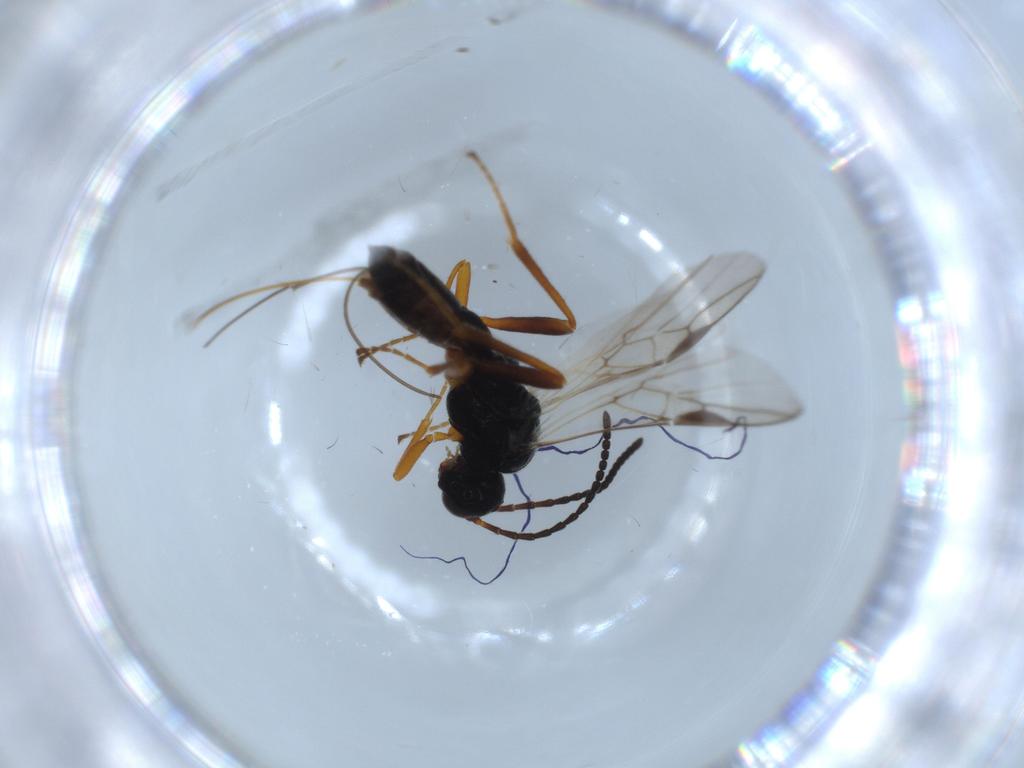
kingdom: Animalia
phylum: Arthropoda
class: Insecta
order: Hymenoptera
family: Braconidae
